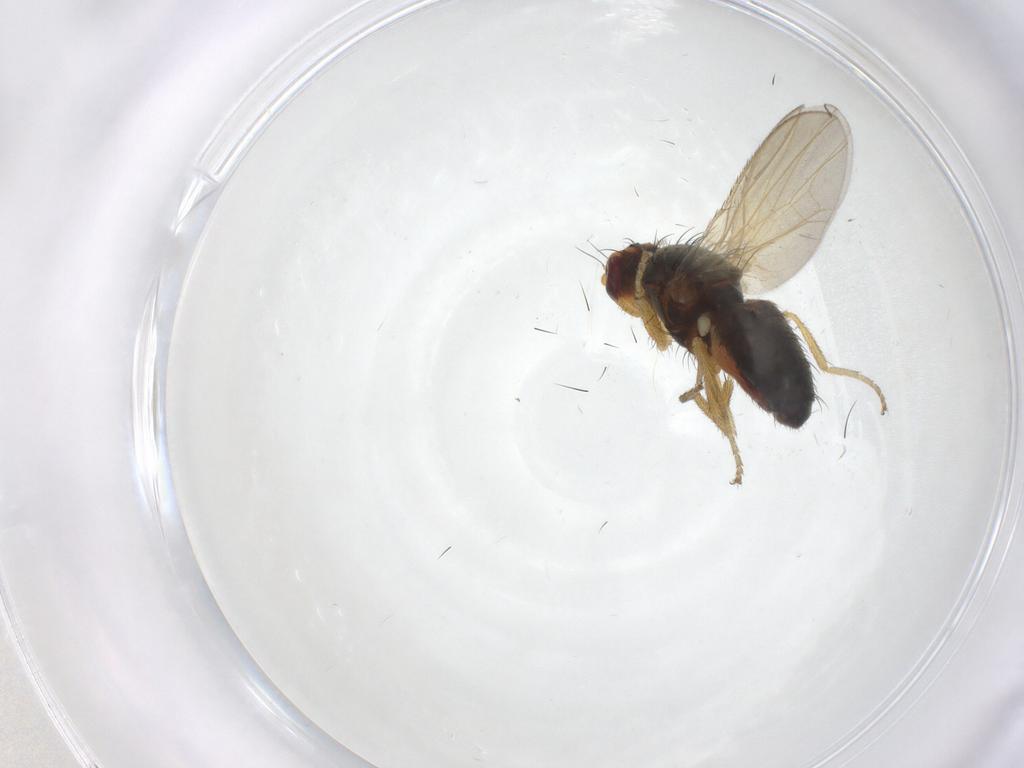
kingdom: Animalia
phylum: Arthropoda
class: Insecta
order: Diptera
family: Heleomyzidae
